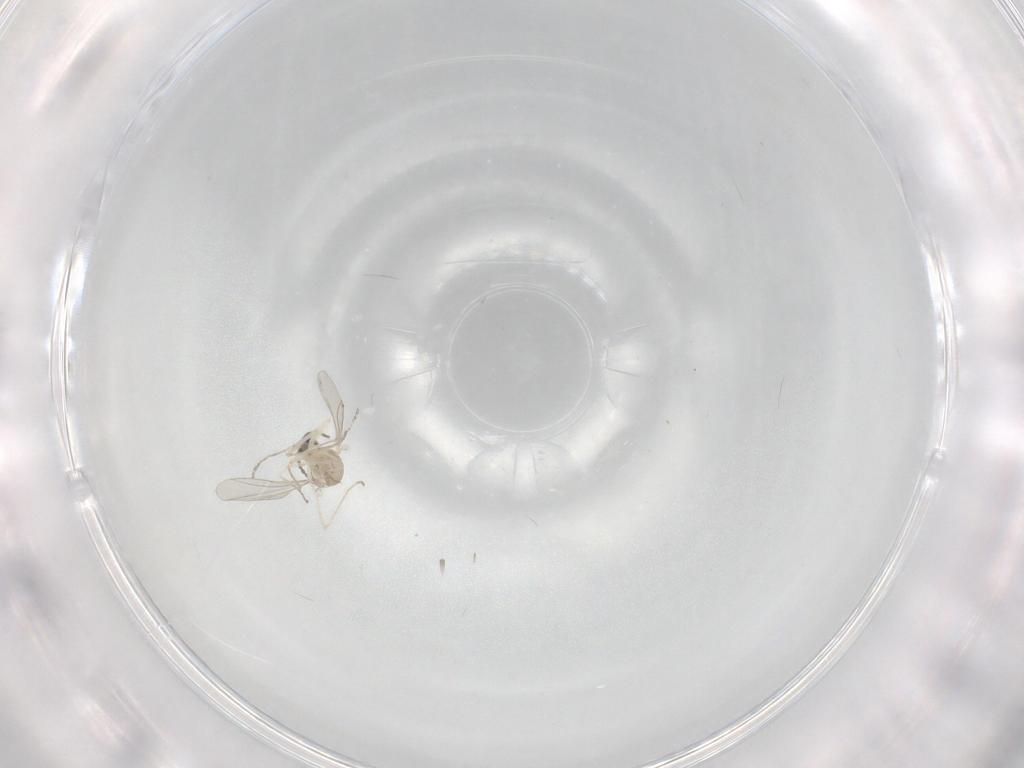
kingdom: Animalia
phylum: Arthropoda
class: Insecta
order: Diptera
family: Cecidomyiidae
